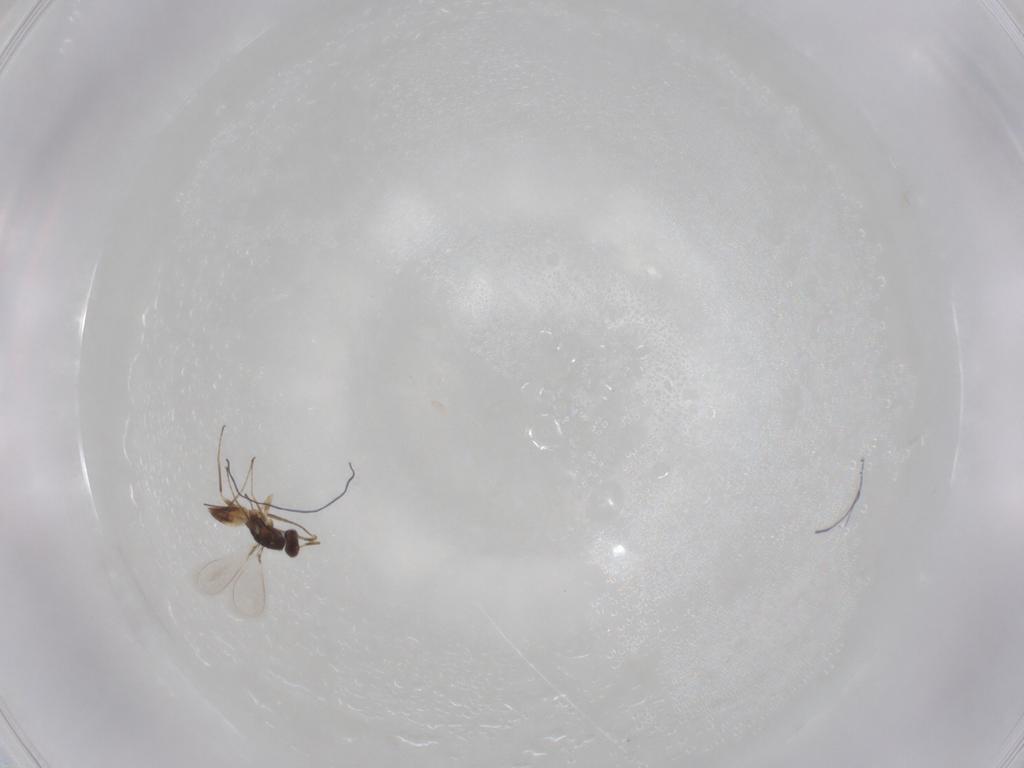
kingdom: Animalia
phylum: Arthropoda
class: Insecta
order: Hymenoptera
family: Mymaridae
